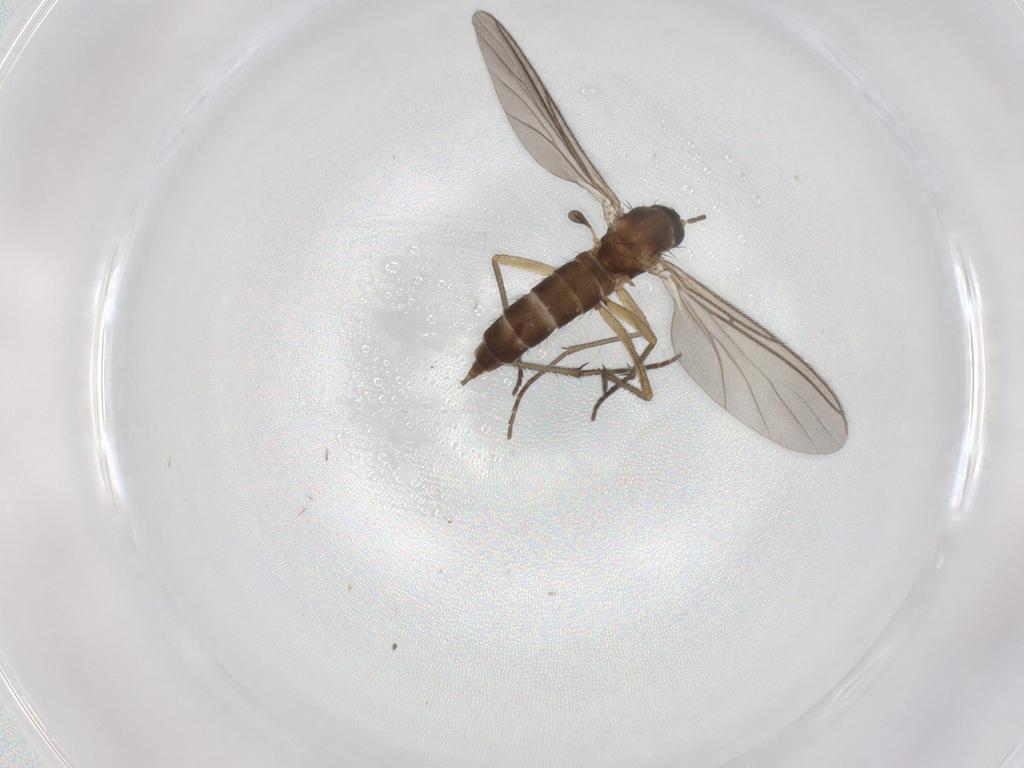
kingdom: Animalia
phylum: Arthropoda
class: Insecta
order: Diptera
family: Sciaridae
